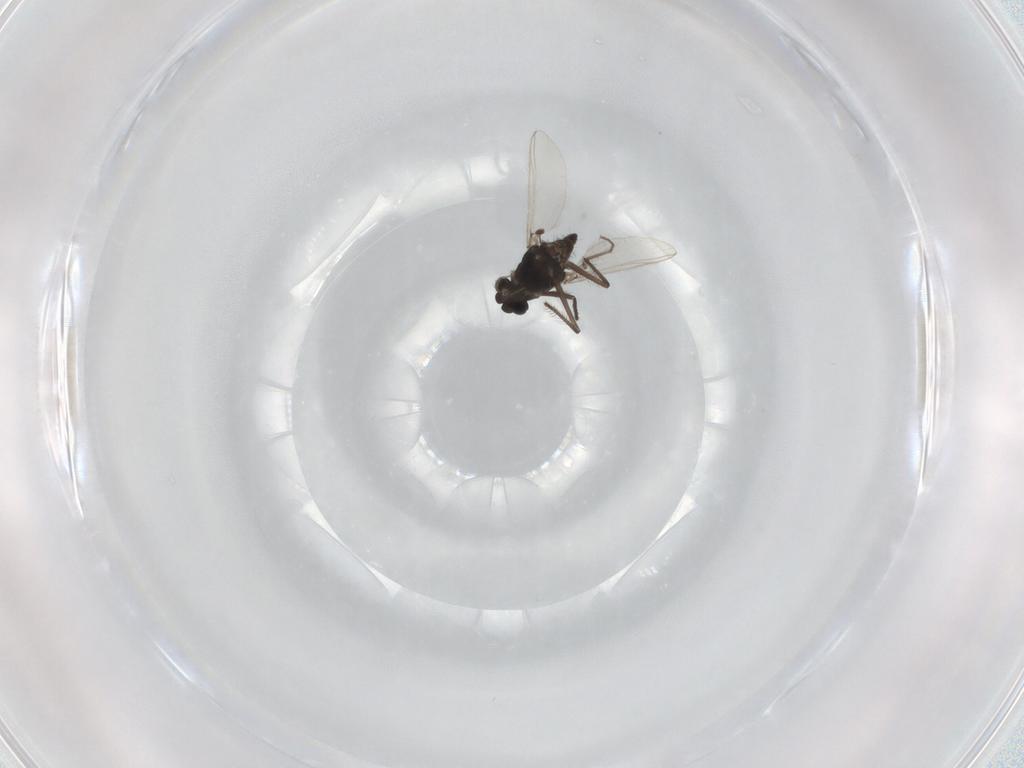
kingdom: Animalia
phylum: Arthropoda
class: Insecta
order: Diptera
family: Chironomidae
